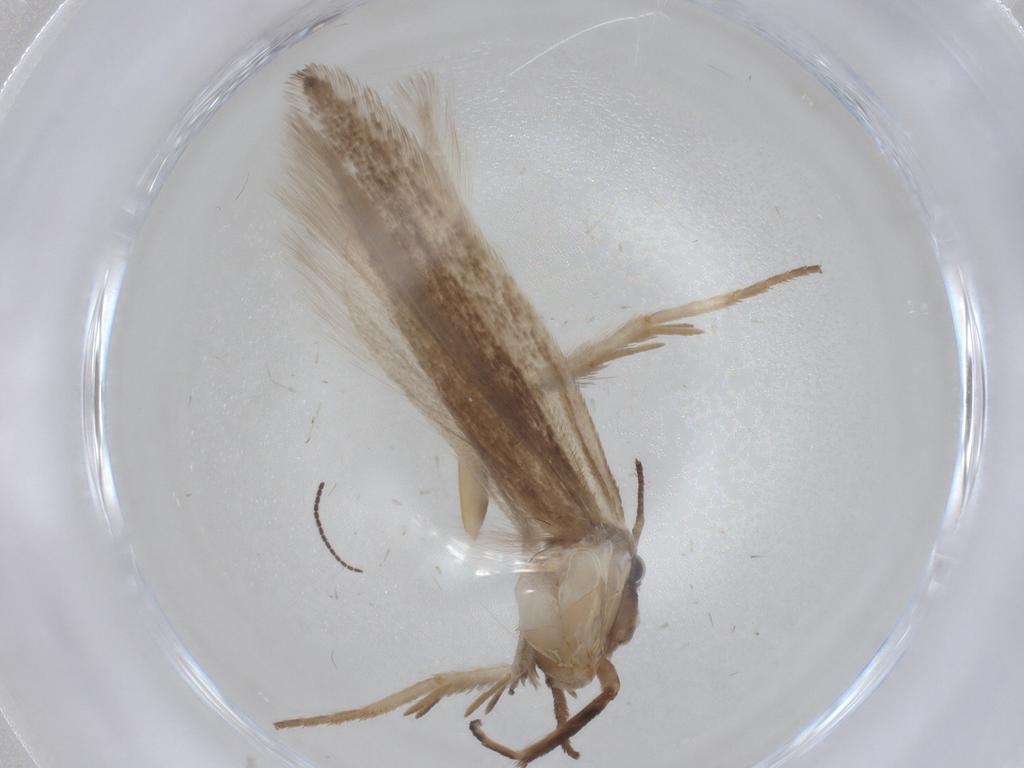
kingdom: Animalia
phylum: Arthropoda
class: Insecta
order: Lepidoptera
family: Gelechiidae
